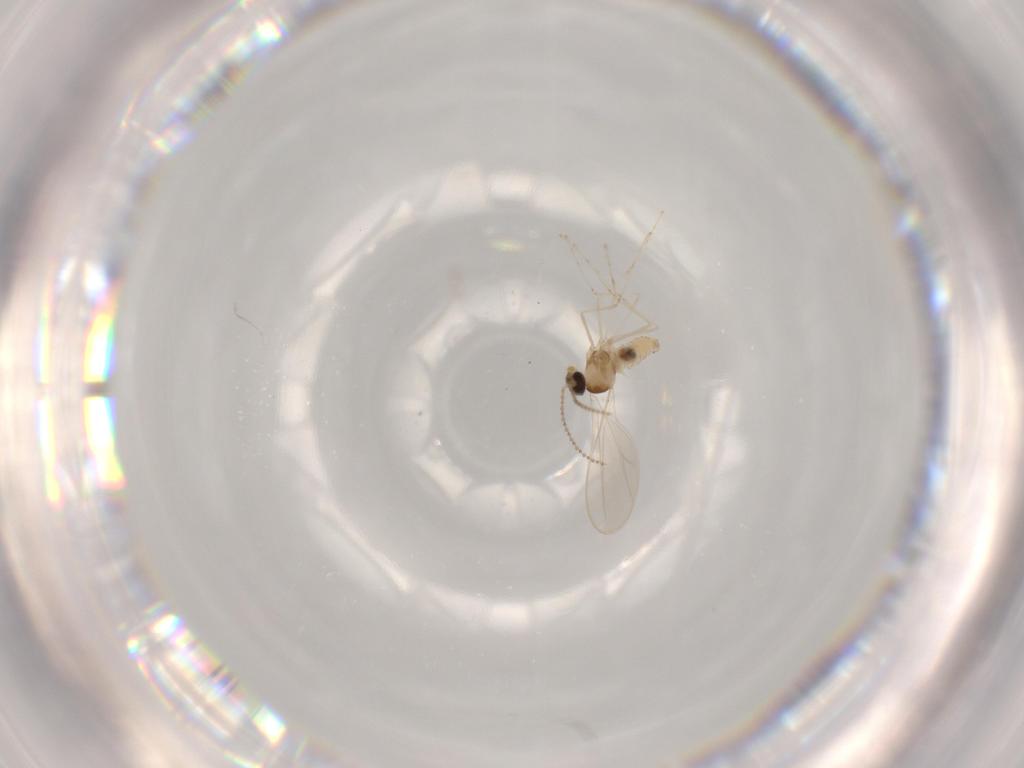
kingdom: Animalia
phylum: Arthropoda
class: Insecta
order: Diptera
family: Cecidomyiidae
